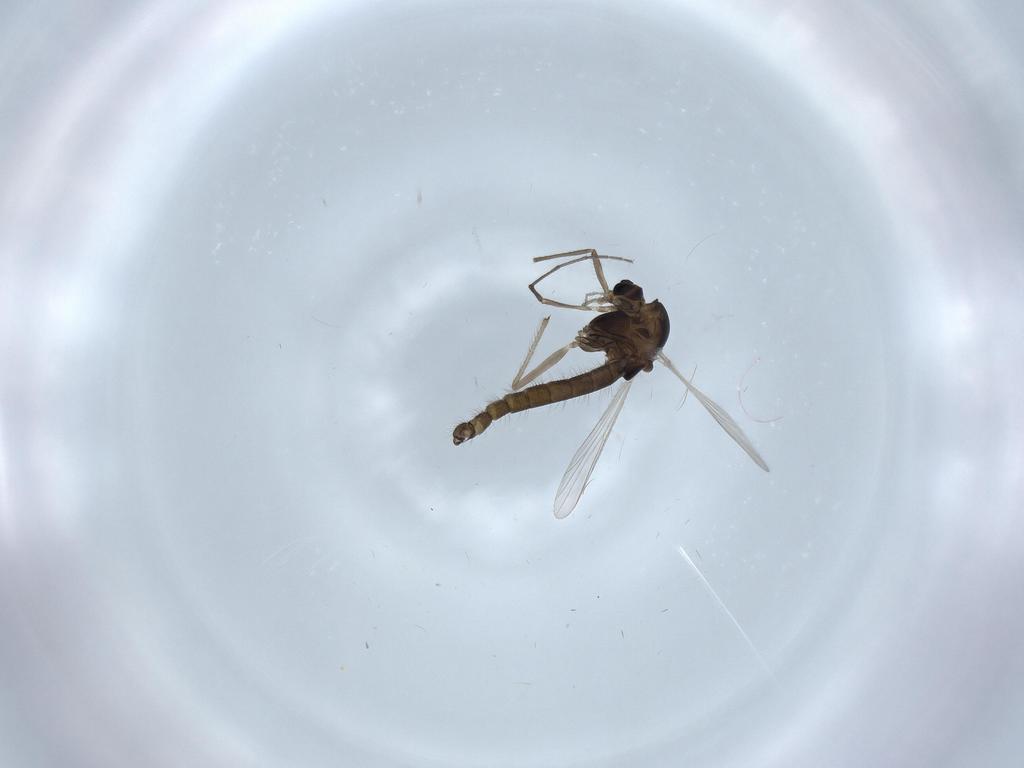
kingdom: Animalia
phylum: Arthropoda
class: Insecta
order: Diptera
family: Chironomidae
